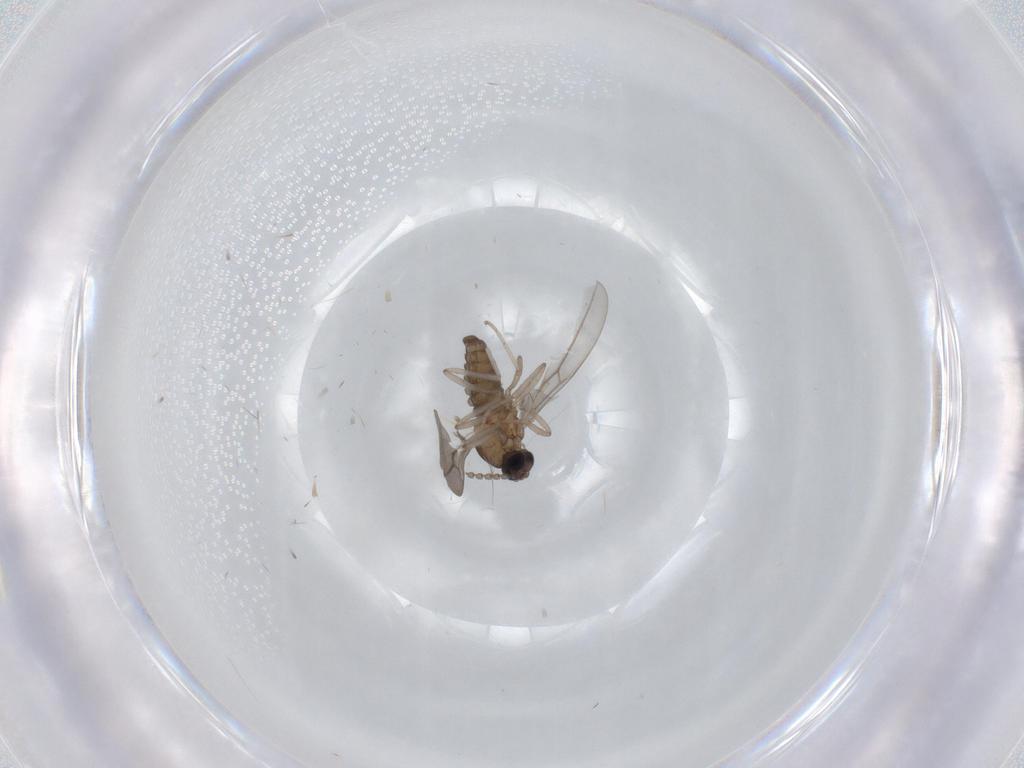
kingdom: Animalia
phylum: Arthropoda
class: Insecta
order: Diptera
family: Cecidomyiidae
